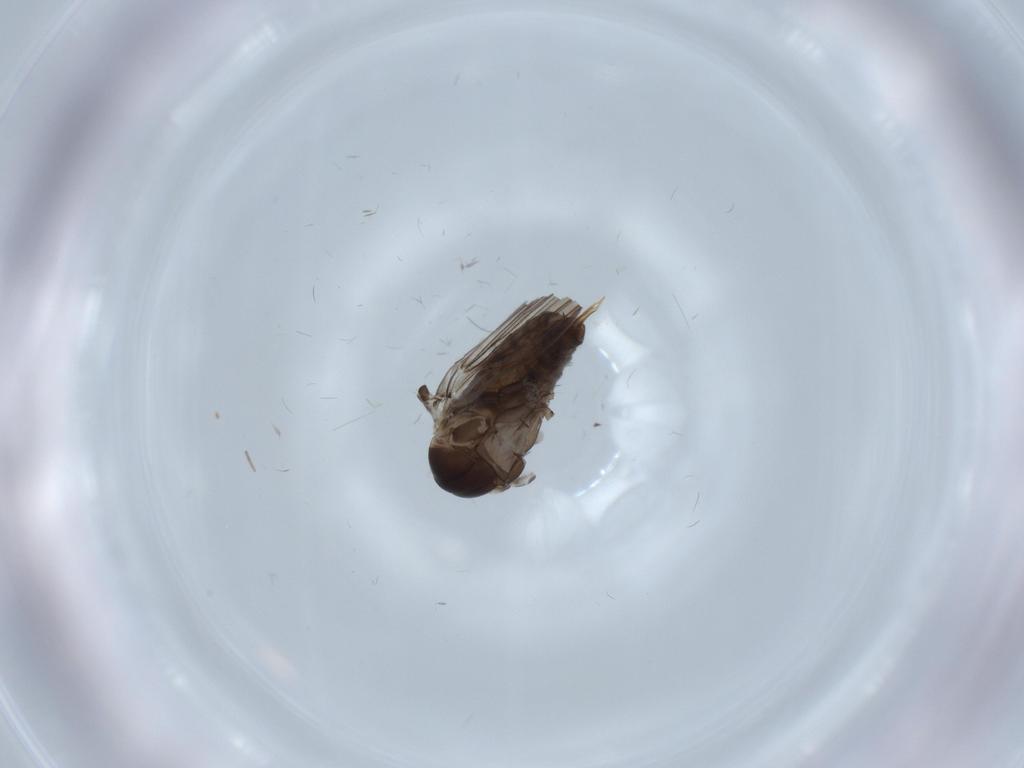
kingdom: Animalia
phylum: Arthropoda
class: Insecta
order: Diptera
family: Psychodidae
